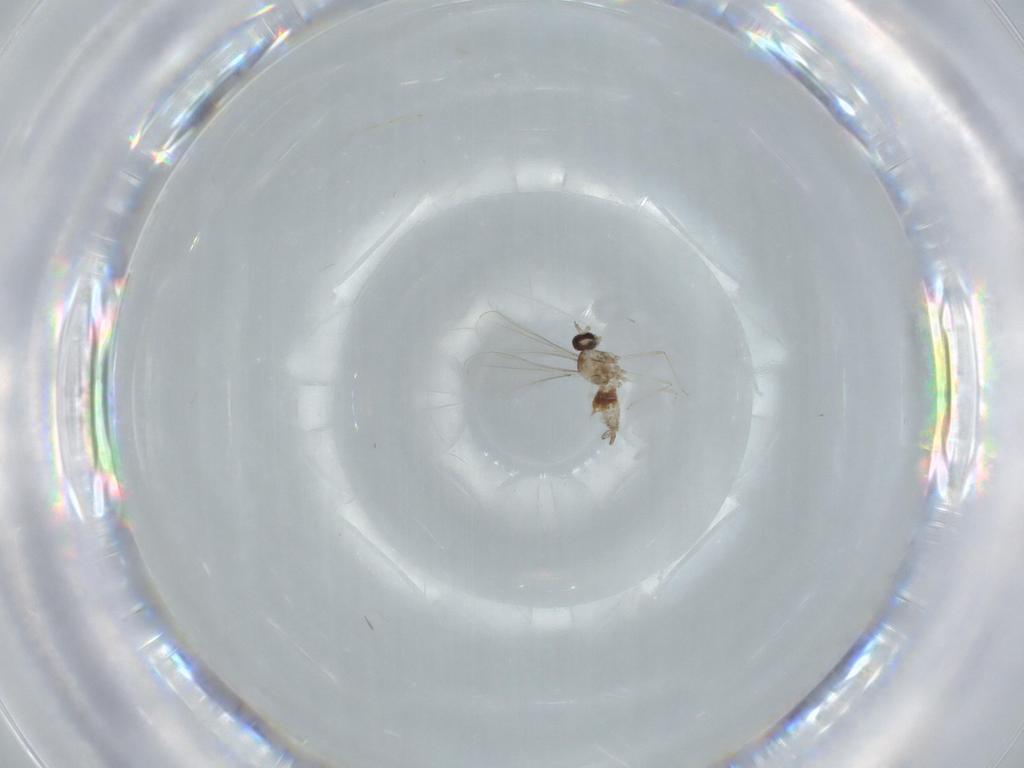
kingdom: Animalia
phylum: Arthropoda
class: Insecta
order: Diptera
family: Cecidomyiidae
